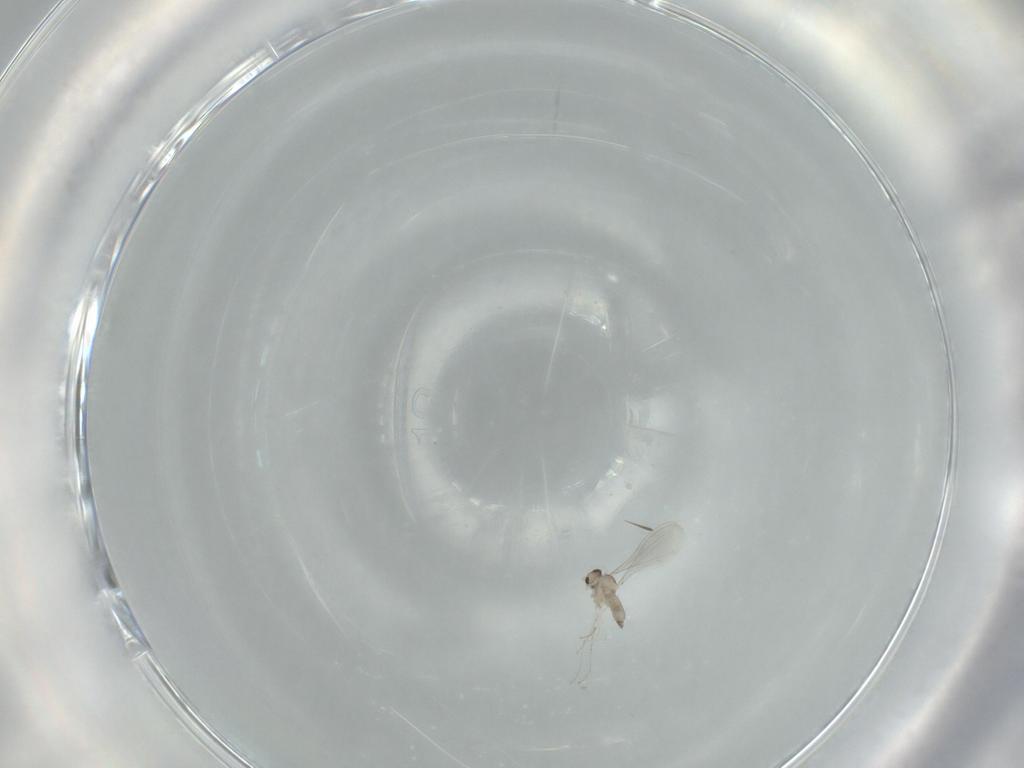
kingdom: Animalia
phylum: Arthropoda
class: Insecta
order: Diptera
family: Cecidomyiidae
